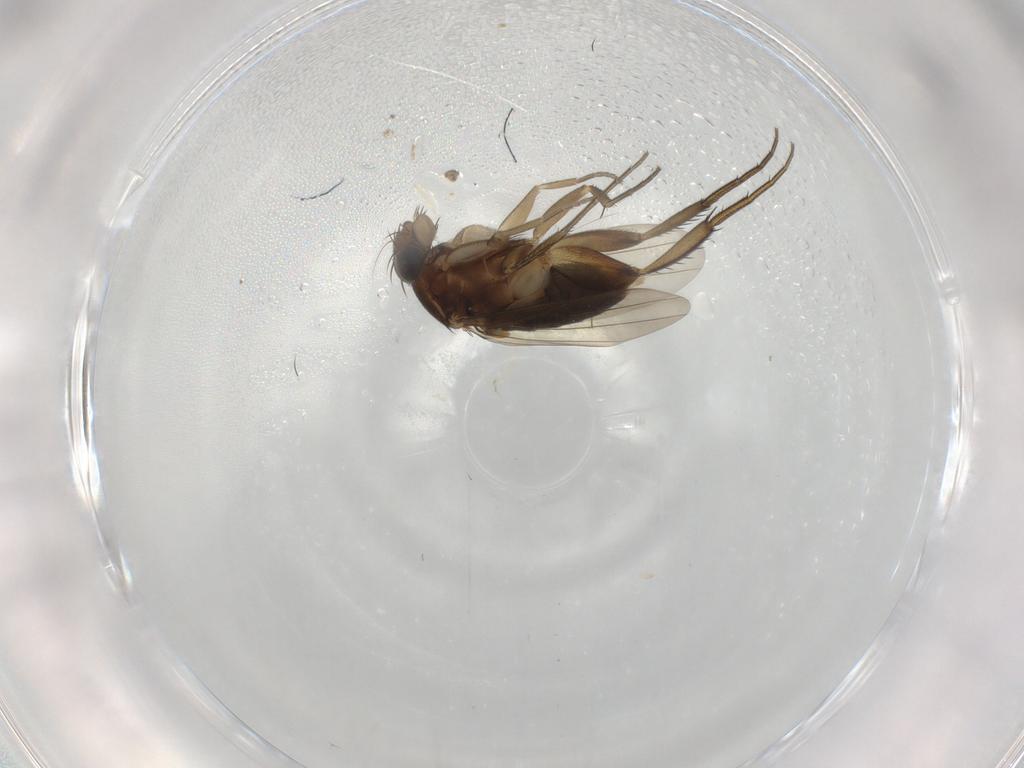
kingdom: Animalia
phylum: Arthropoda
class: Insecta
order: Diptera
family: Phoridae
